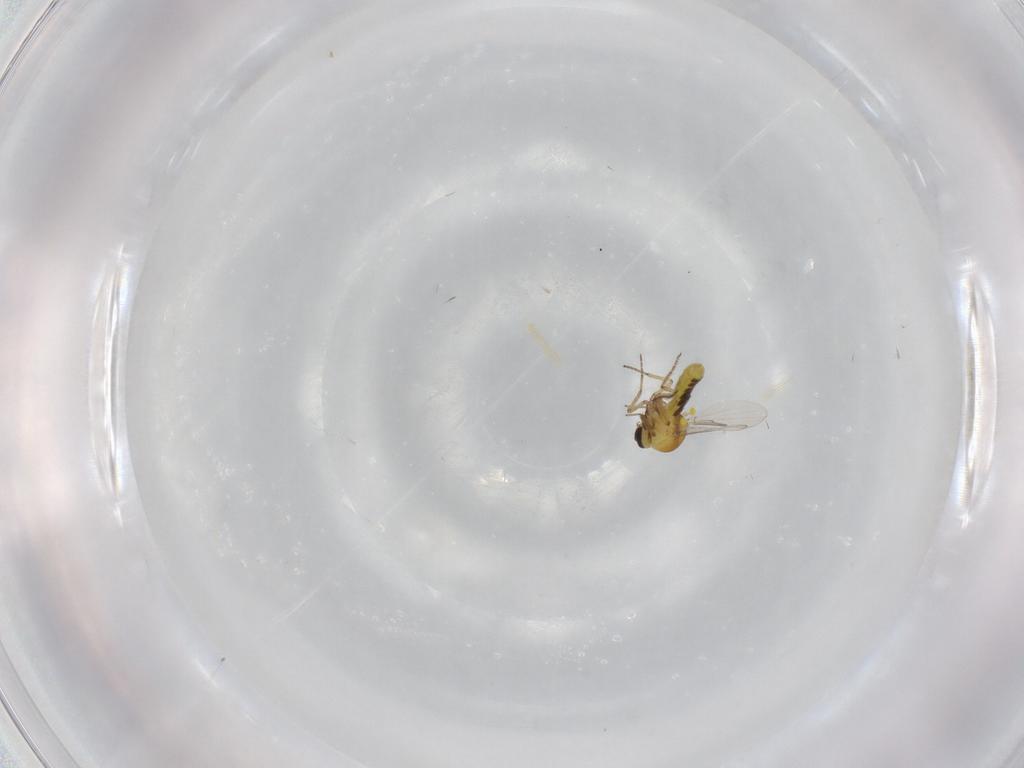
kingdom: Animalia
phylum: Arthropoda
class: Insecta
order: Diptera
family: Ceratopogonidae
